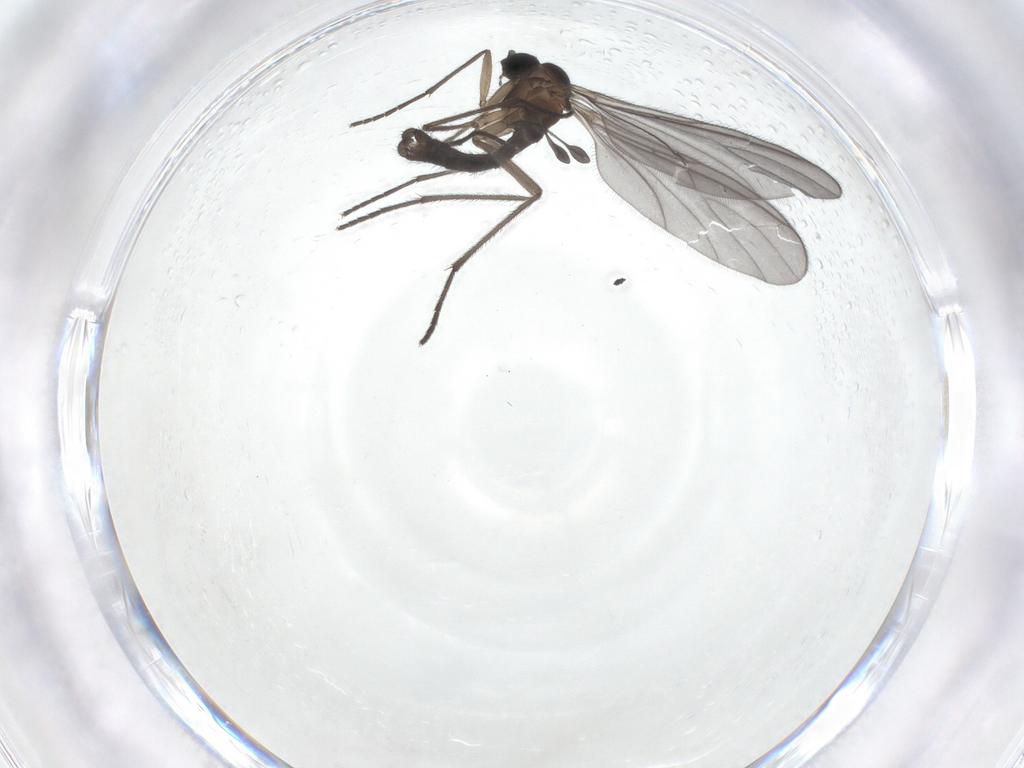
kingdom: Animalia
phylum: Arthropoda
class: Insecta
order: Diptera
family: Sciaridae
